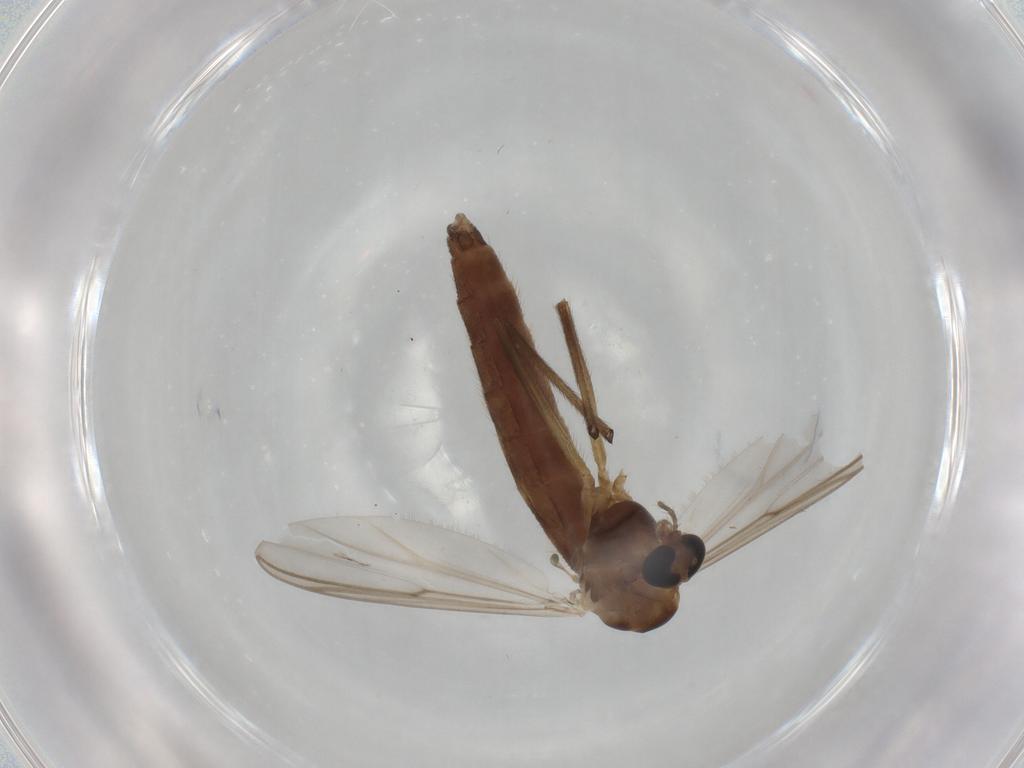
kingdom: Animalia
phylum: Arthropoda
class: Insecta
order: Diptera
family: Chironomidae
